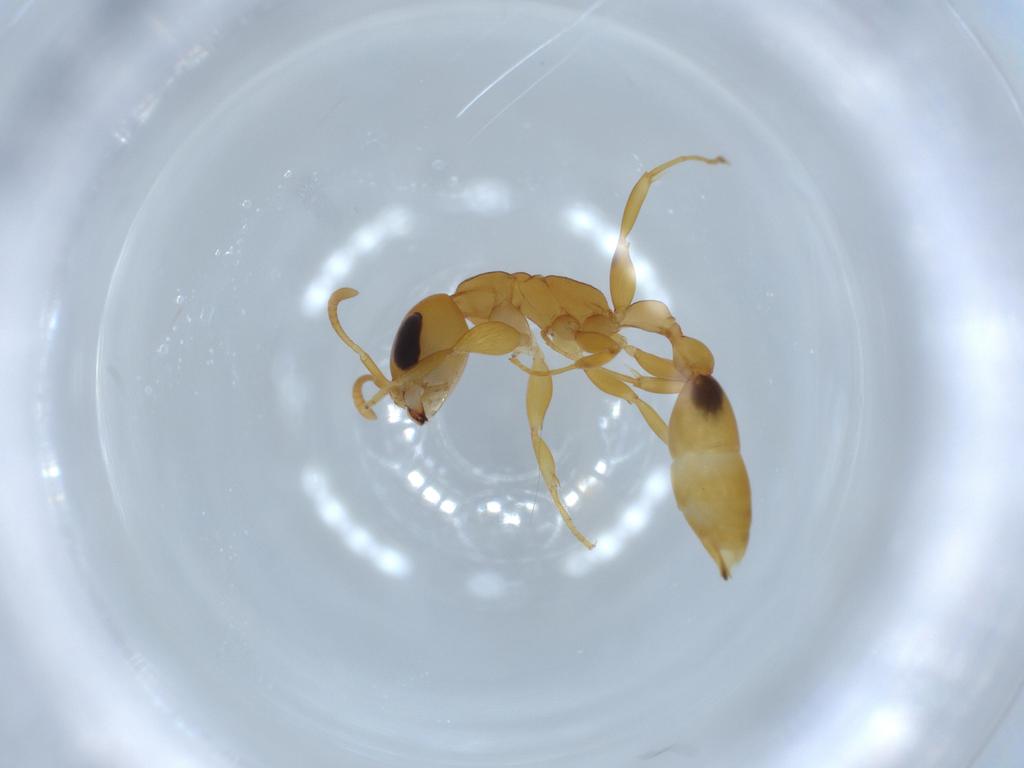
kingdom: Animalia
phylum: Arthropoda
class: Insecta
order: Hymenoptera
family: Formicidae
